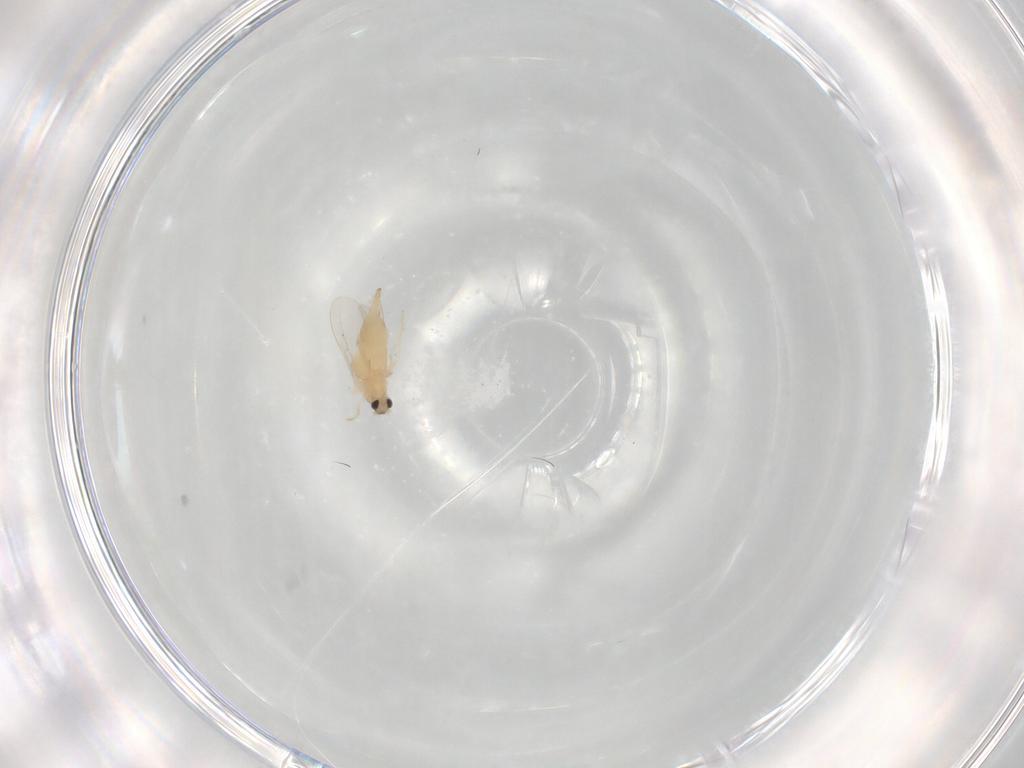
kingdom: Animalia
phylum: Arthropoda
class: Insecta
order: Diptera
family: Cecidomyiidae
